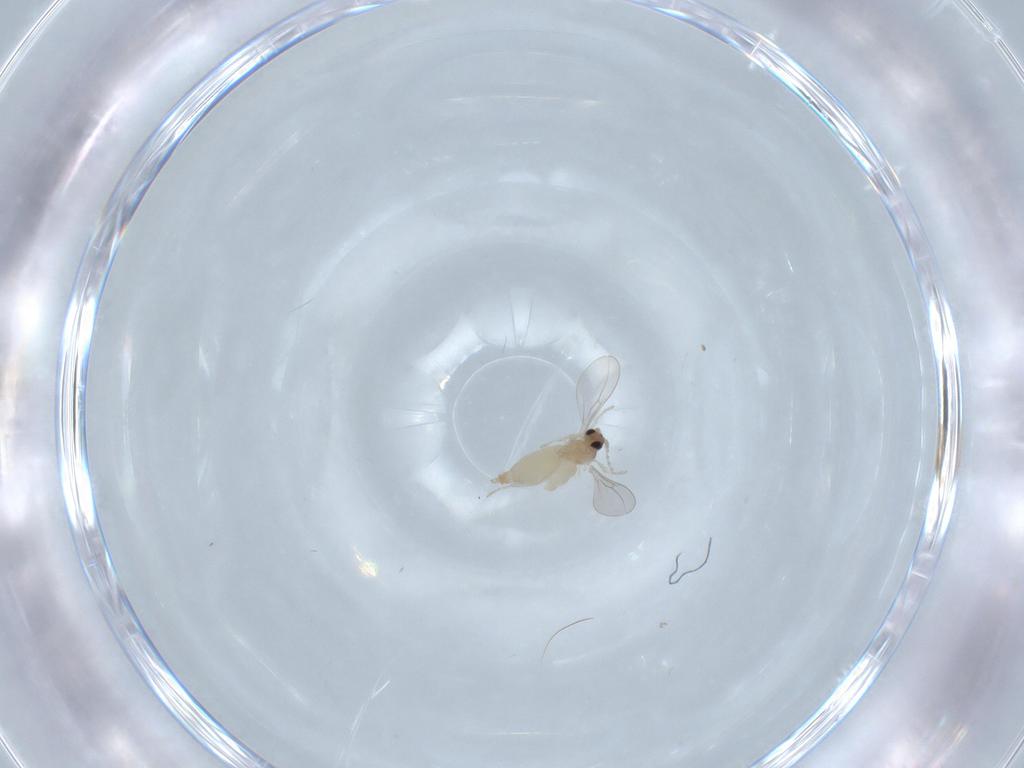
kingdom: Animalia
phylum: Arthropoda
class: Insecta
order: Diptera
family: Cecidomyiidae
